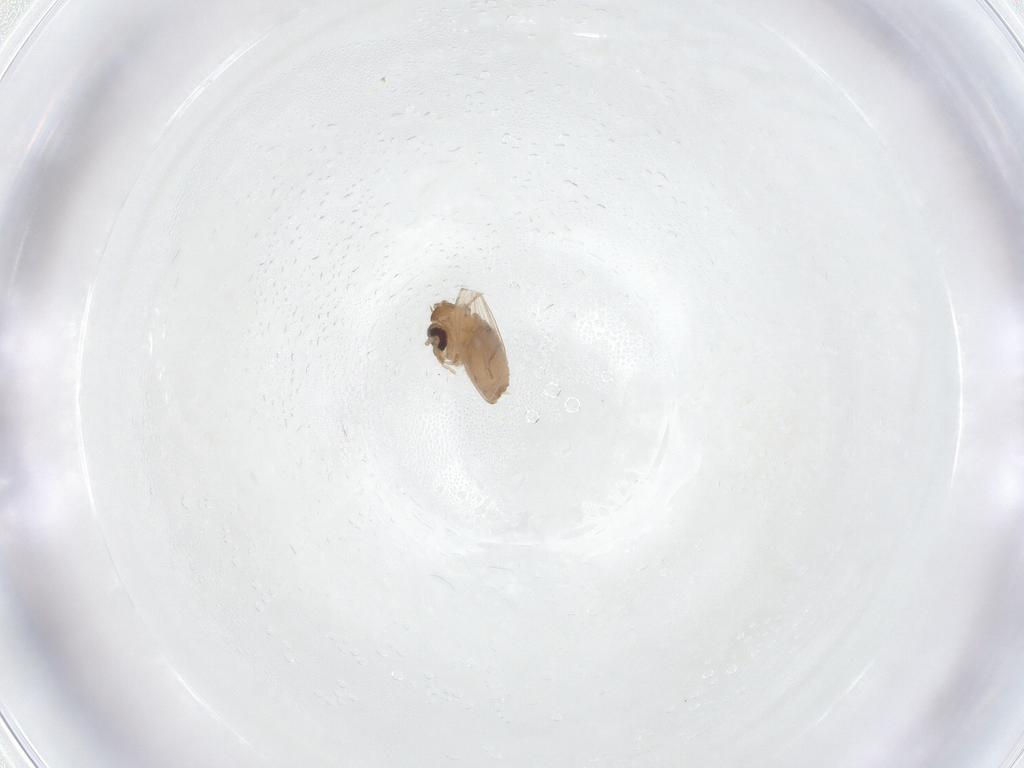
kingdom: Animalia
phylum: Arthropoda
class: Insecta
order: Diptera
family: Psychodidae
